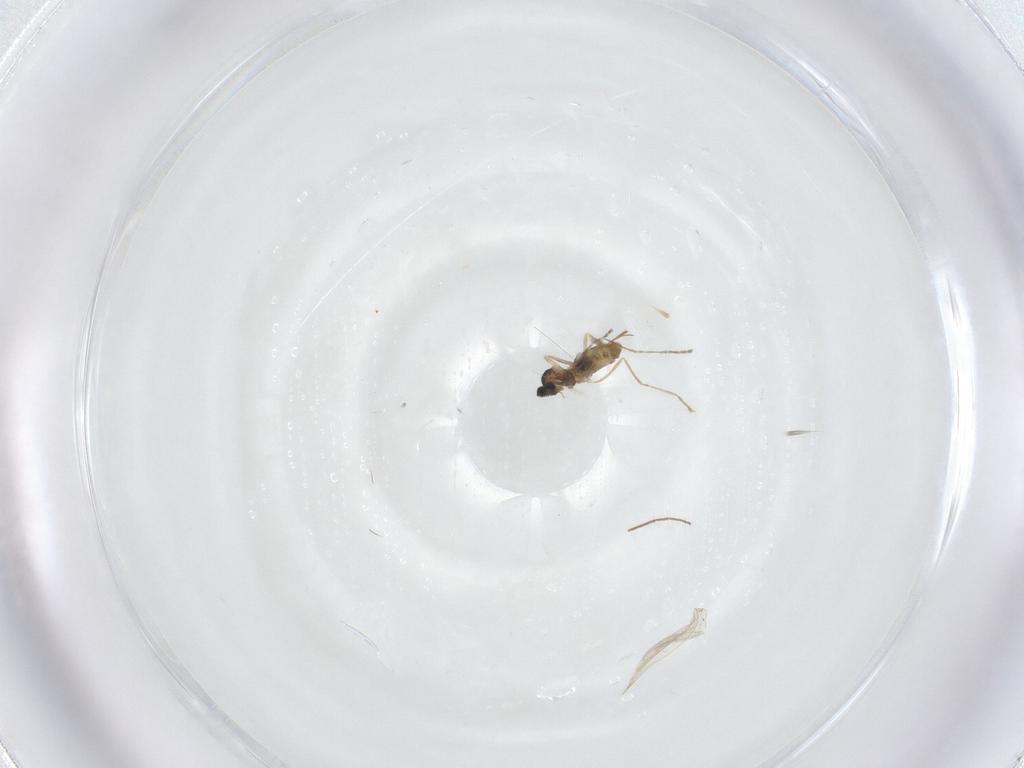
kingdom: Animalia
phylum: Arthropoda
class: Insecta
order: Diptera
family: Cecidomyiidae
